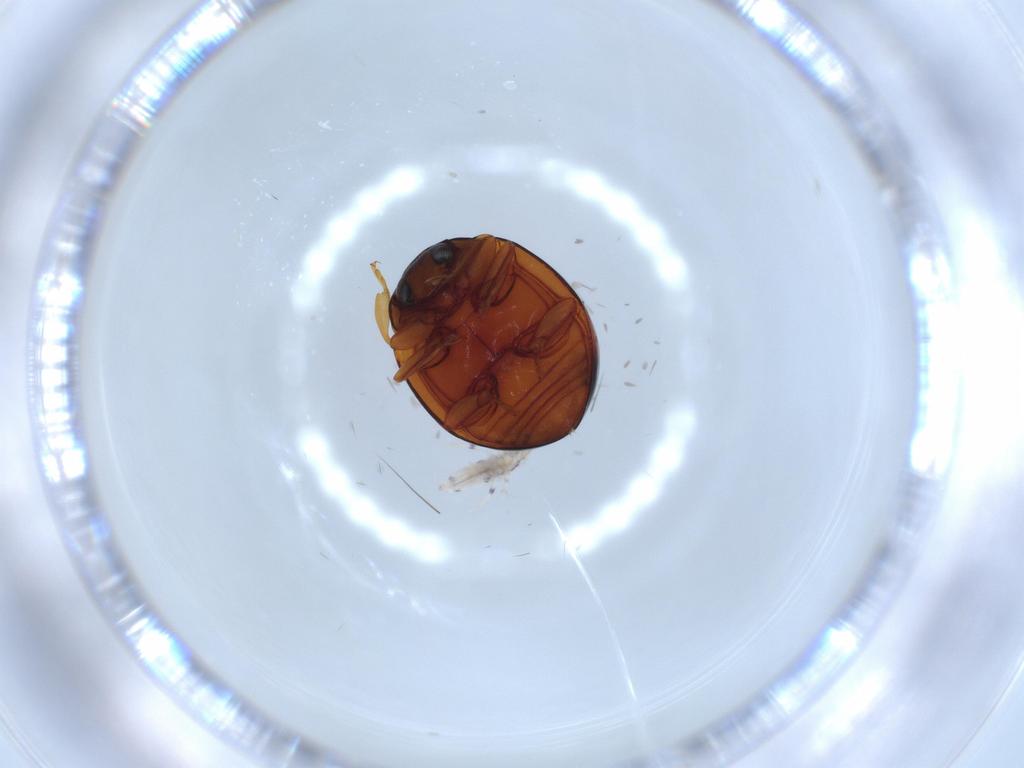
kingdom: Animalia
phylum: Arthropoda
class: Insecta
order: Coleoptera
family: Coccinellidae
